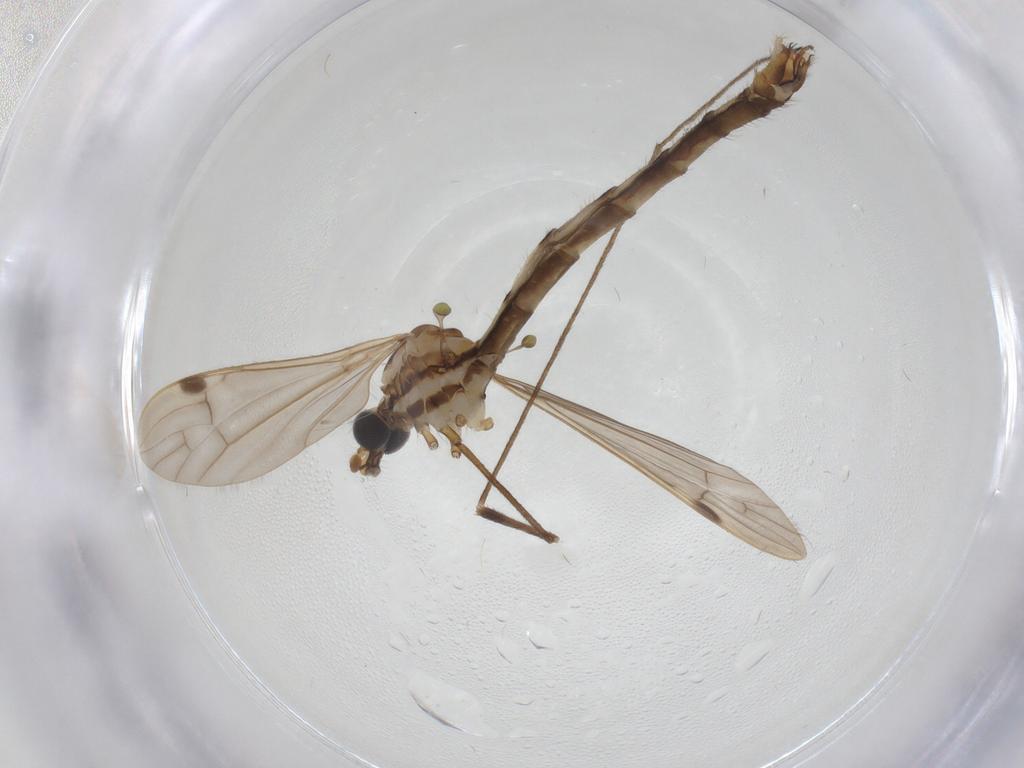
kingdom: Animalia
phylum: Arthropoda
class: Insecta
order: Diptera
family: Limoniidae
